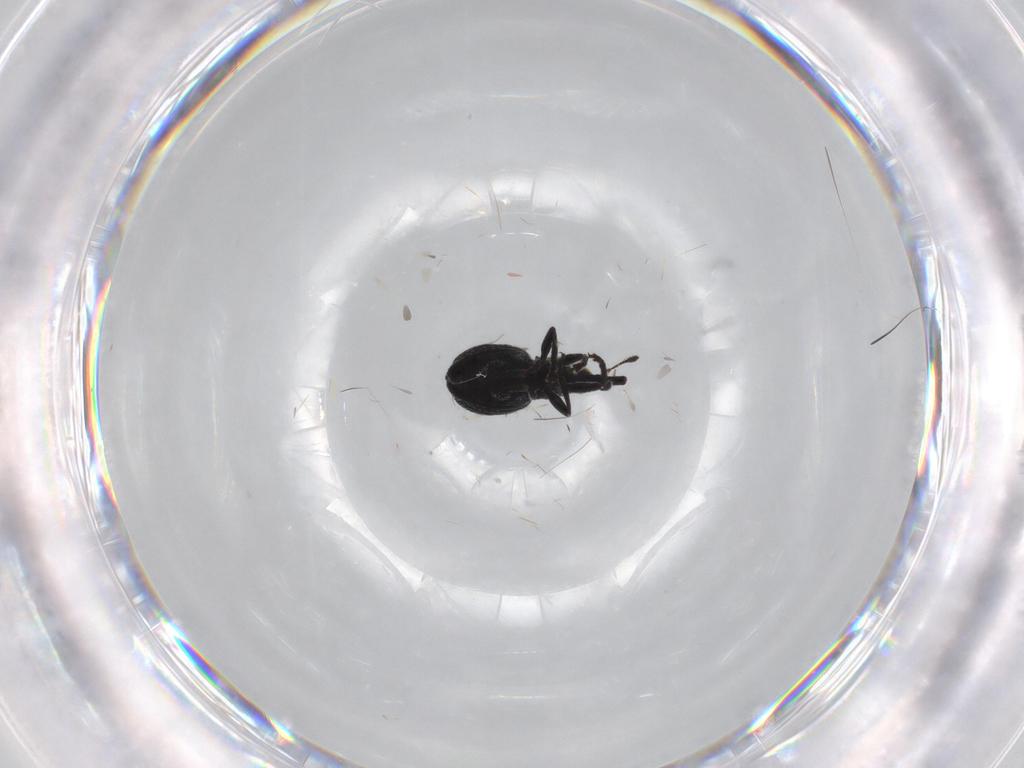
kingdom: Animalia
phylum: Arthropoda
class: Insecta
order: Coleoptera
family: Brentidae
